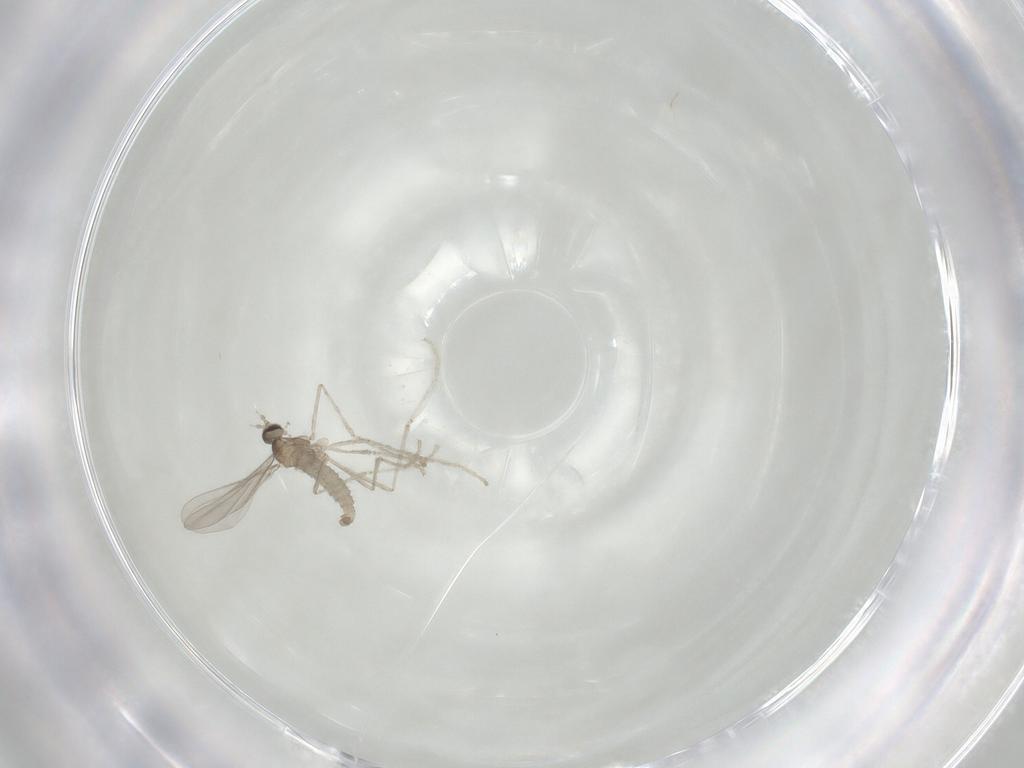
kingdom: Animalia
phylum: Arthropoda
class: Insecta
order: Diptera
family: Cecidomyiidae
